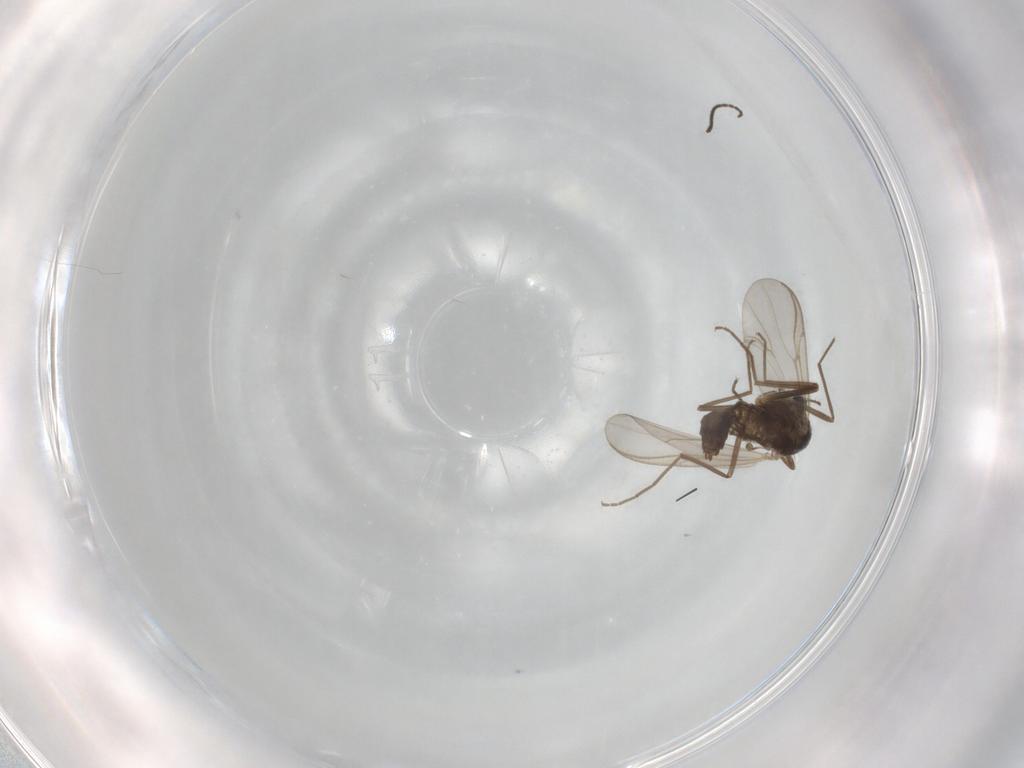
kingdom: Animalia
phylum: Arthropoda
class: Insecta
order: Diptera
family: Chironomidae
